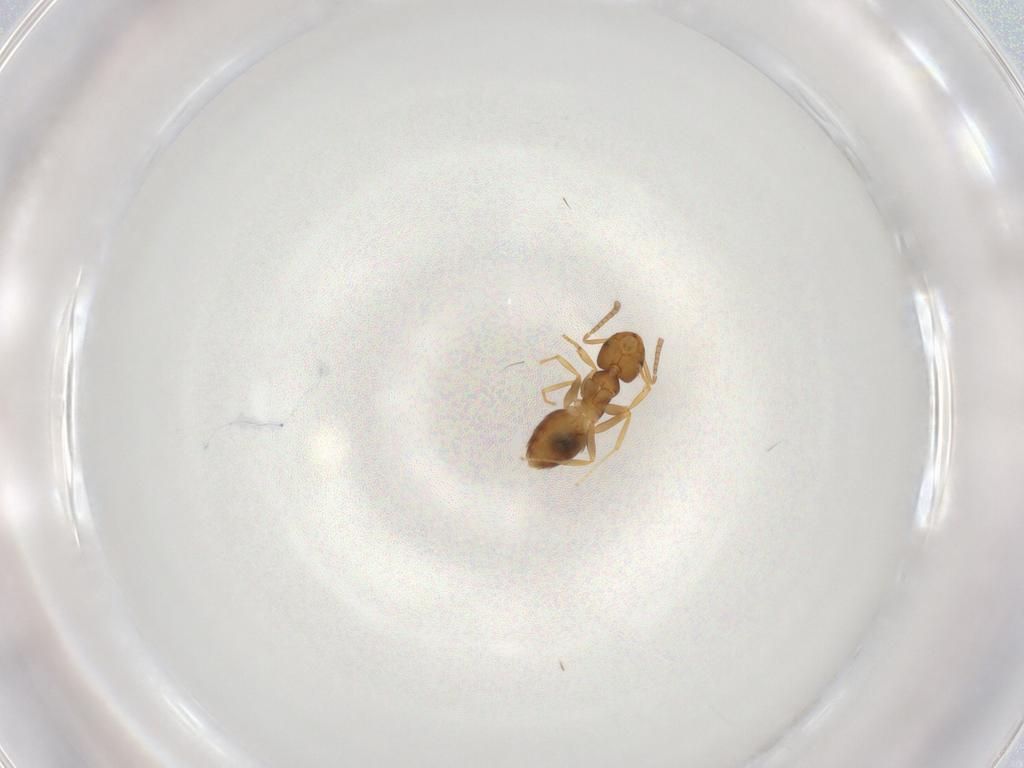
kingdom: Animalia
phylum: Arthropoda
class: Insecta
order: Hymenoptera
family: Formicidae
